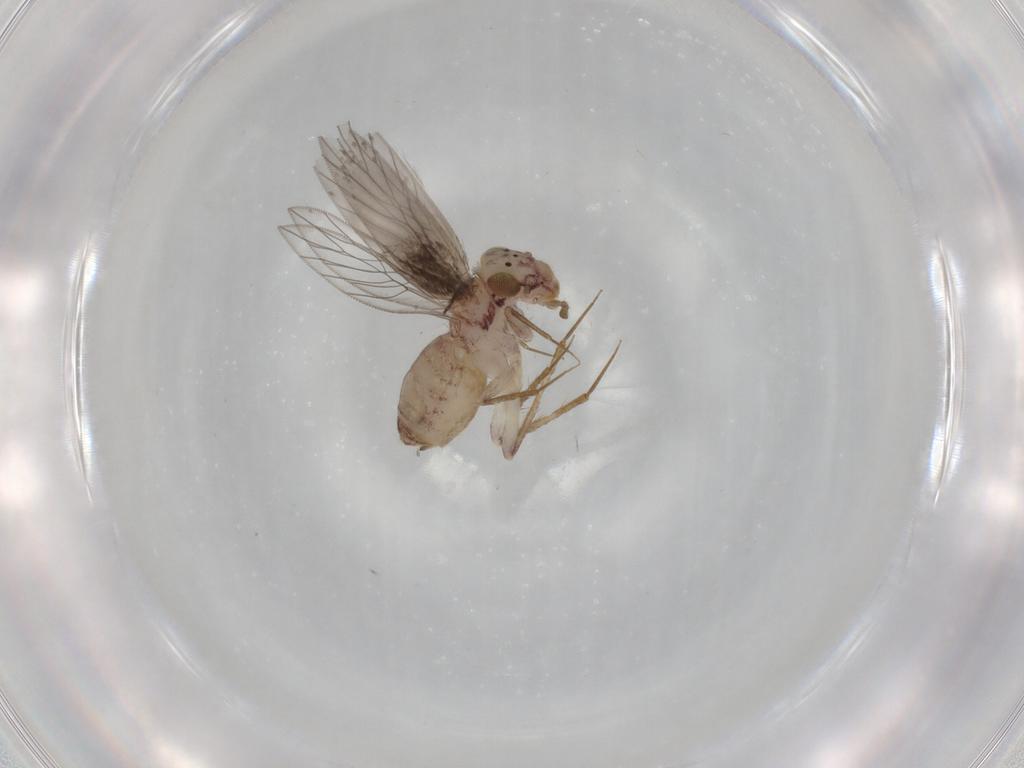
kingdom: Animalia
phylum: Arthropoda
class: Insecta
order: Psocodea
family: Lepidopsocidae
